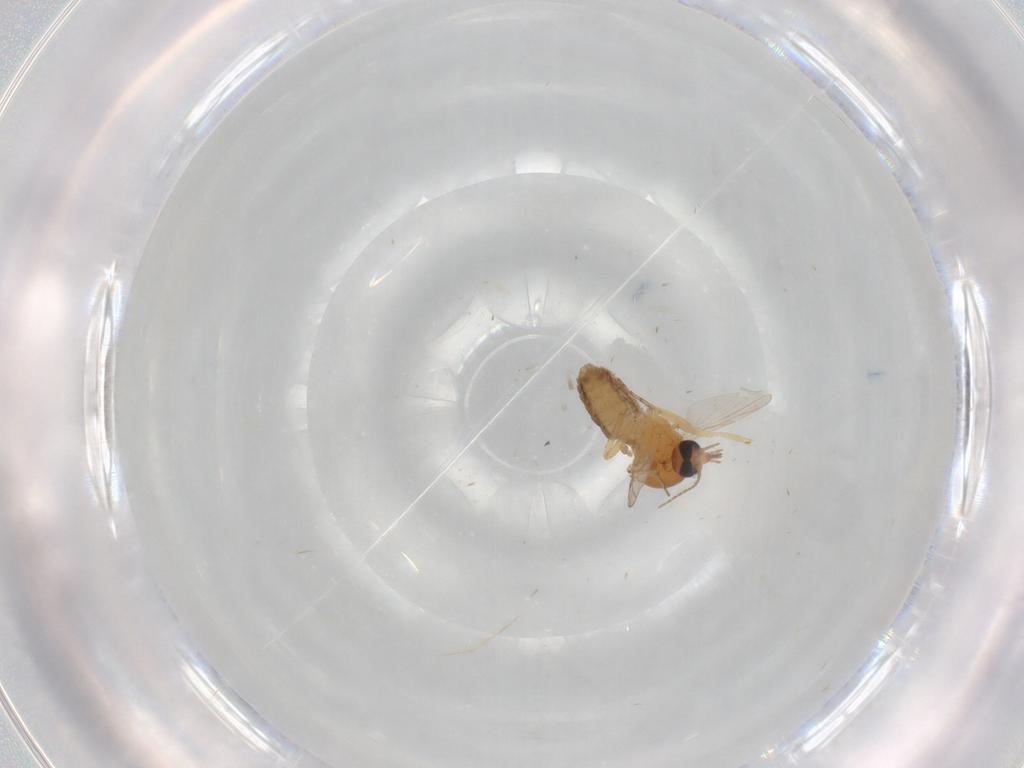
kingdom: Animalia
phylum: Arthropoda
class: Insecta
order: Diptera
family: Ceratopogonidae
